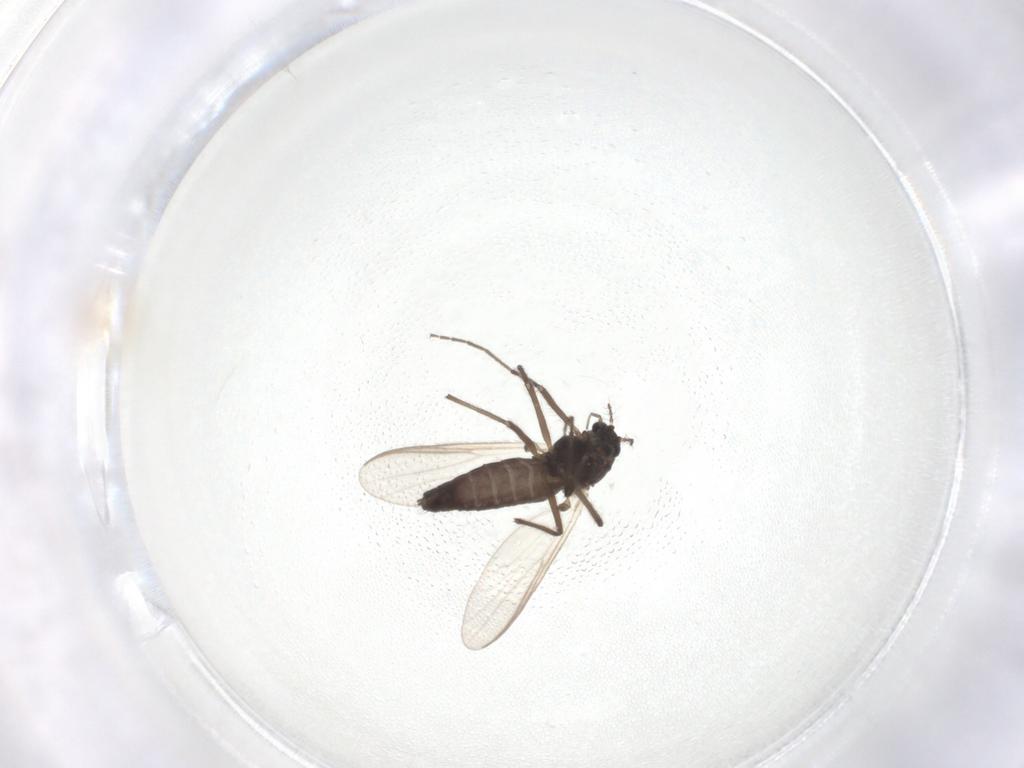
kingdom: Animalia
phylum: Arthropoda
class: Insecta
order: Diptera
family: Chironomidae
